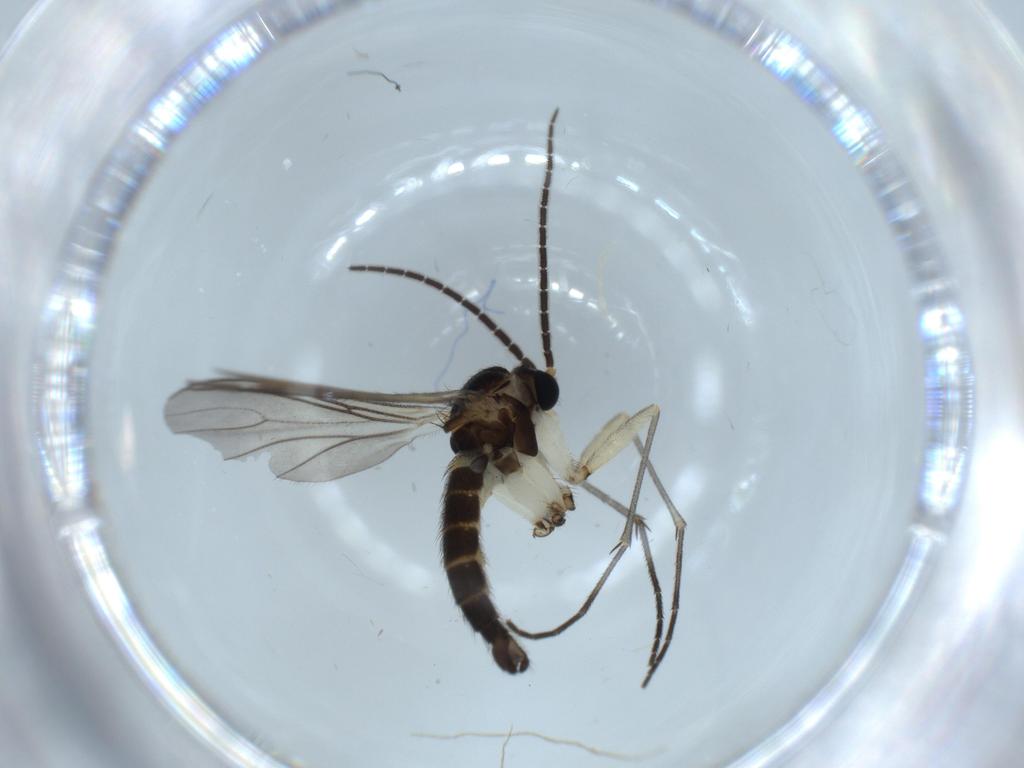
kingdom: Animalia
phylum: Arthropoda
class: Insecta
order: Diptera
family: Sciaridae
